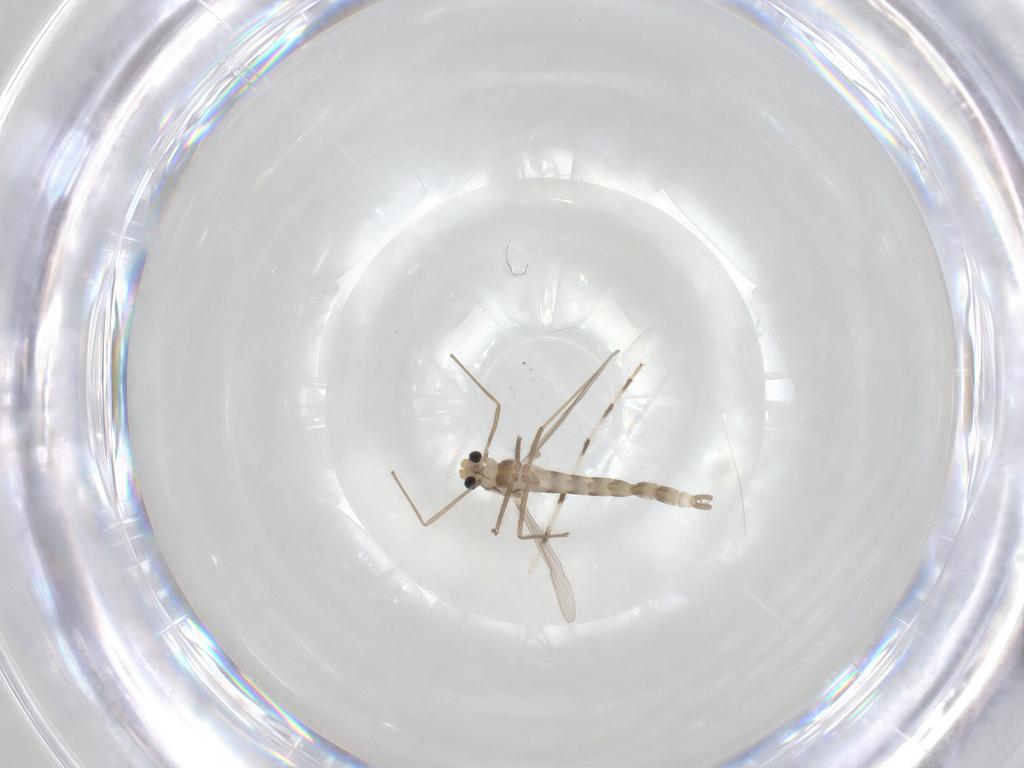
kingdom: Animalia
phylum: Arthropoda
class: Insecta
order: Diptera
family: Chironomidae
